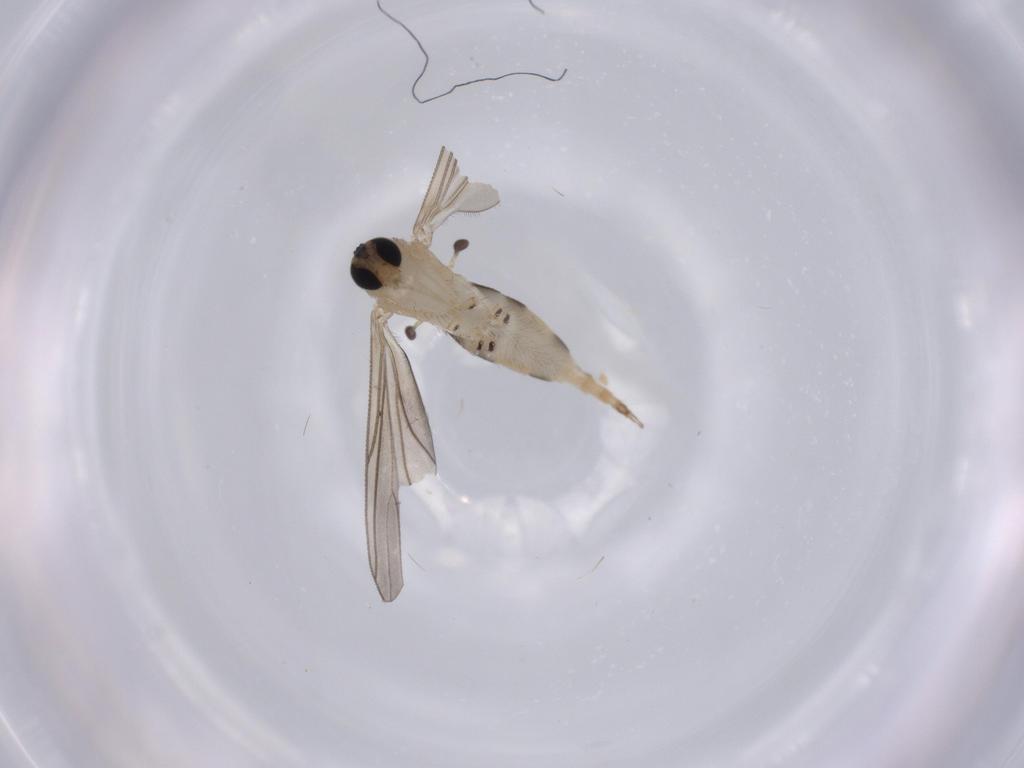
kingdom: Animalia
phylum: Arthropoda
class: Insecta
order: Diptera
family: Sciaridae
